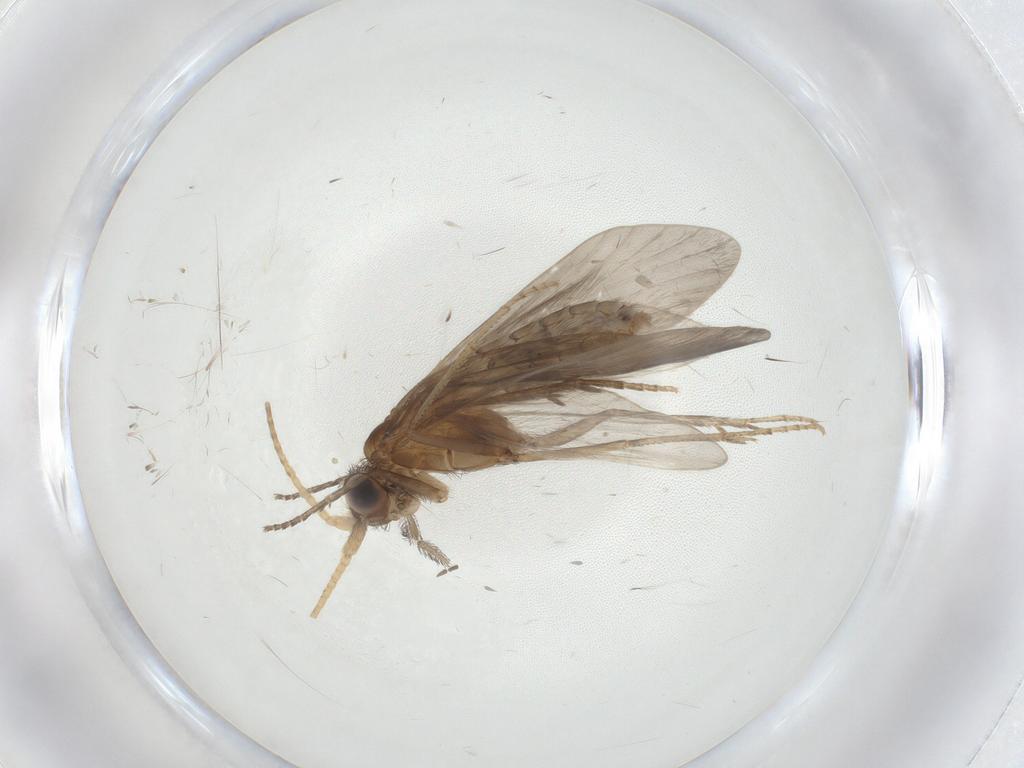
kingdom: Animalia
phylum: Arthropoda
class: Insecta
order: Trichoptera
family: Helicopsychidae
